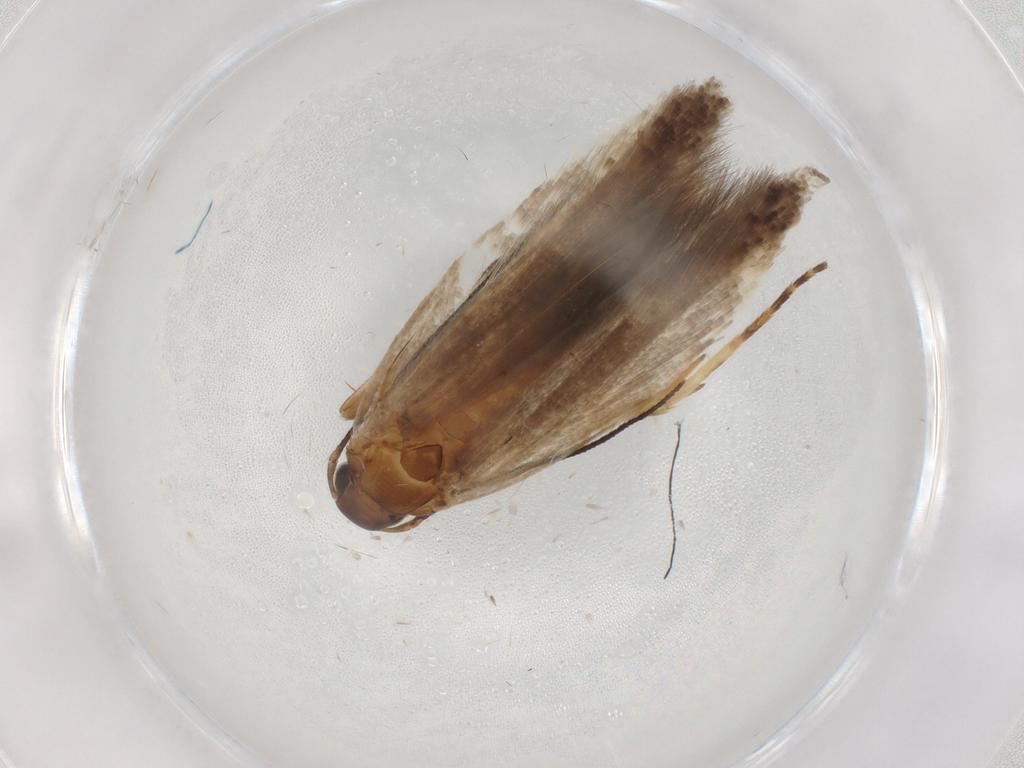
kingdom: Animalia
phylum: Arthropoda
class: Insecta
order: Lepidoptera
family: Gelechiidae
